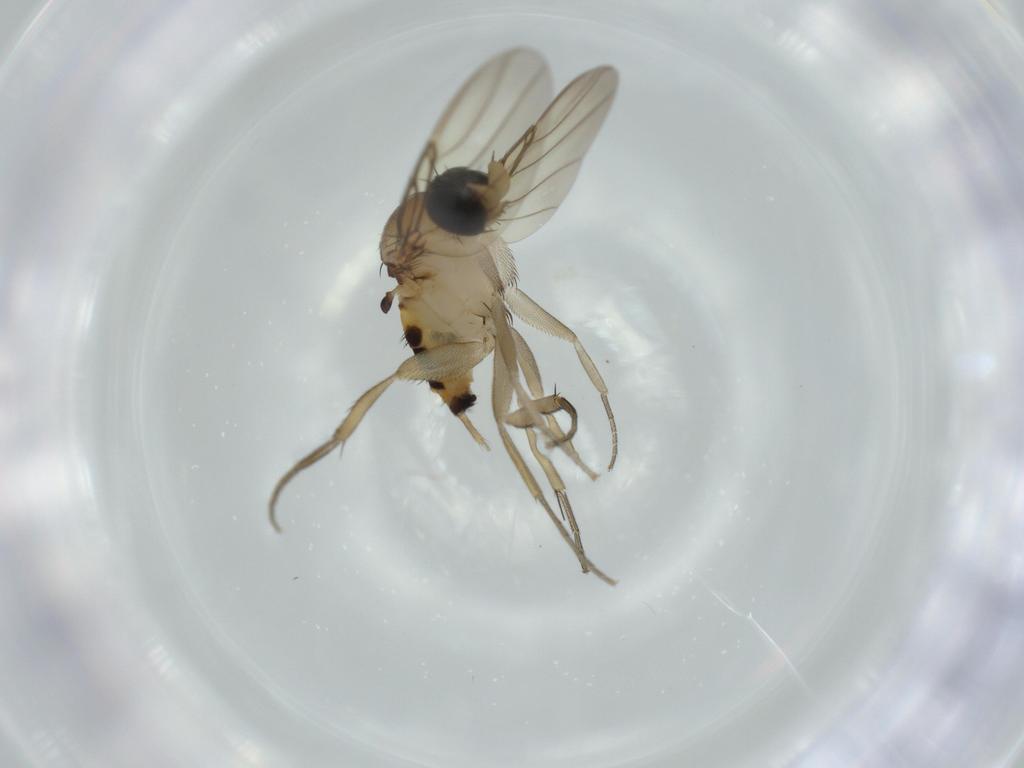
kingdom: Animalia
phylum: Arthropoda
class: Insecta
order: Diptera
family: Phoridae
